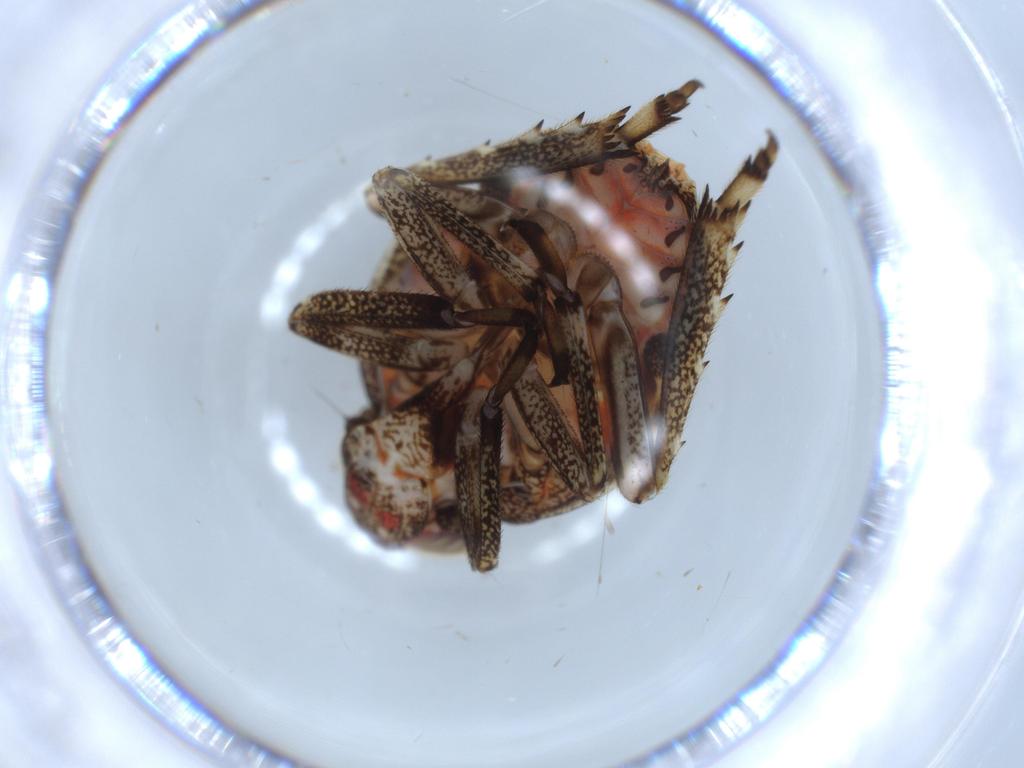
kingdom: Animalia
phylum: Arthropoda
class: Insecta
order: Hemiptera
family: Issidae
